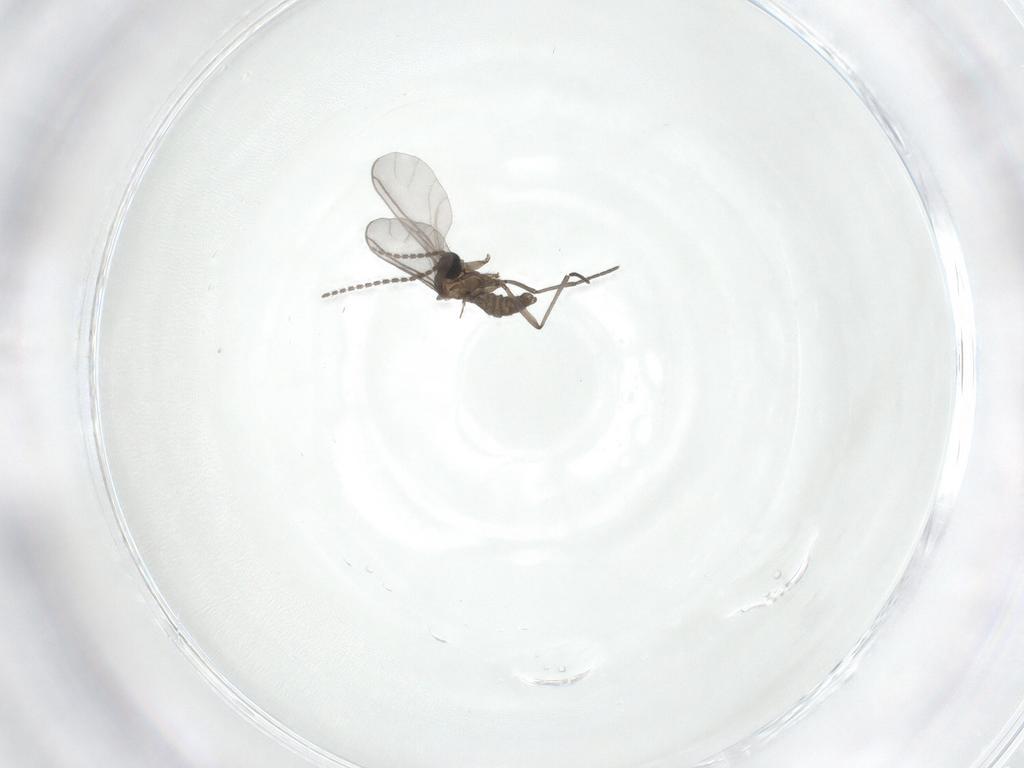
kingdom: Animalia
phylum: Arthropoda
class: Insecta
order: Diptera
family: Sciaridae
